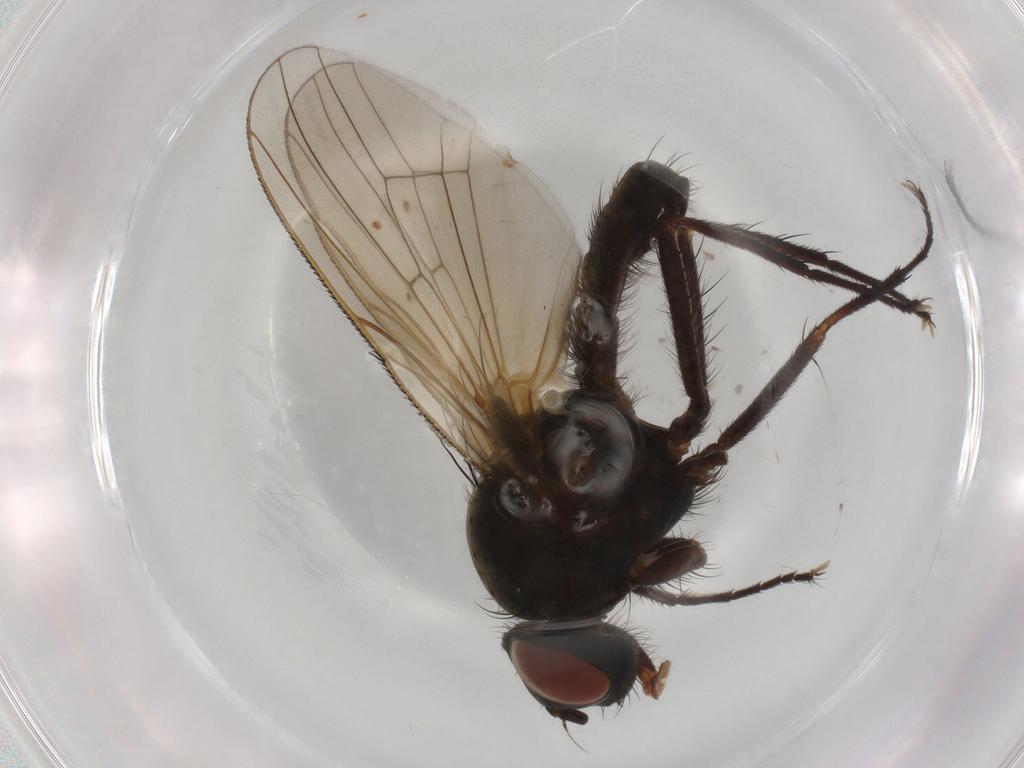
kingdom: Animalia
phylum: Arthropoda
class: Insecta
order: Diptera
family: Anthomyiidae
